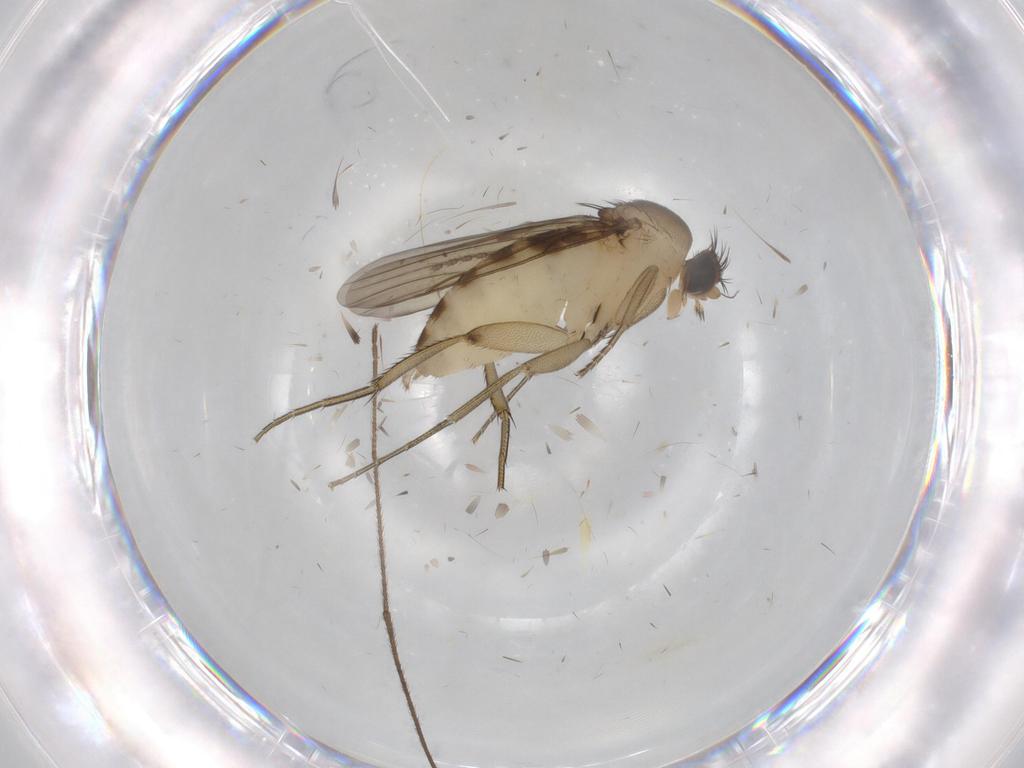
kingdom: Animalia
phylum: Arthropoda
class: Insecta
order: Diptera
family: Phoridae
